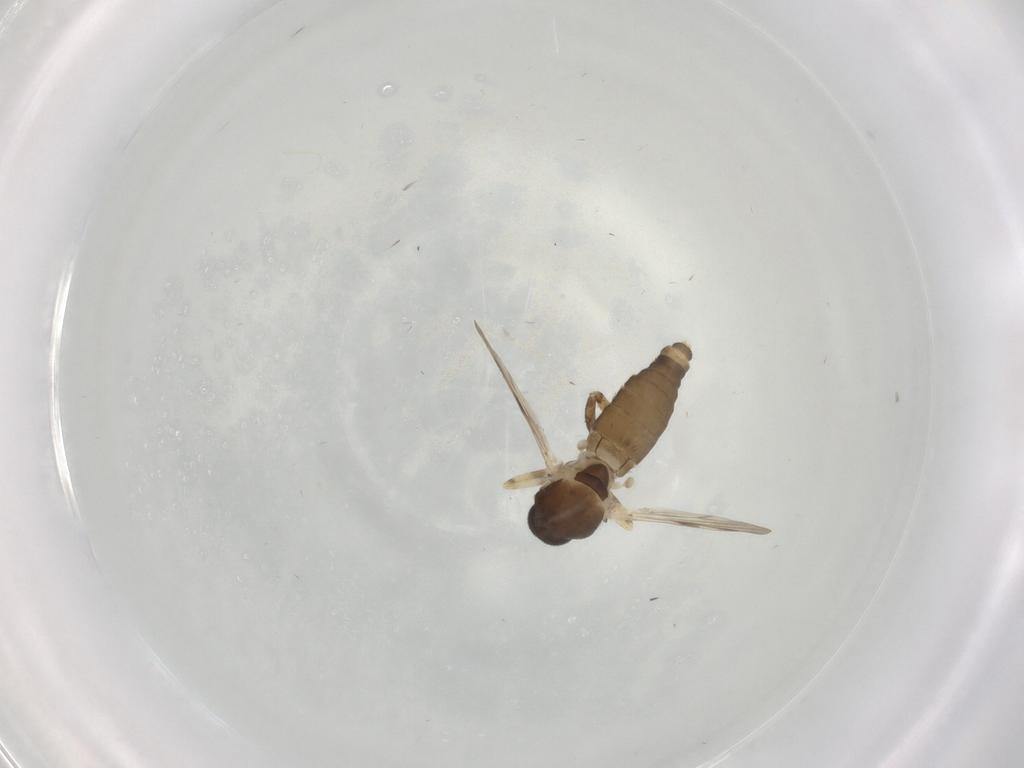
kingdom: Animalia
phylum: Arthropoda
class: Insecta
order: Diptera
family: Ceratopogonidae
